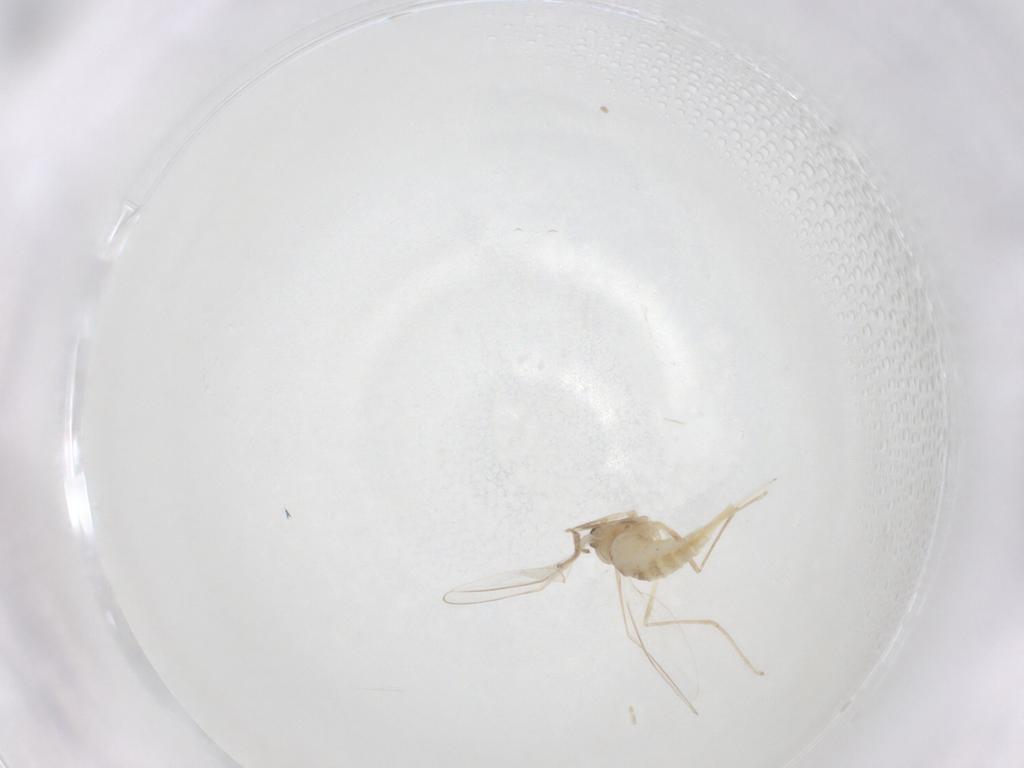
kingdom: Animalia
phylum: Arthropoda
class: Insecta
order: Diptera
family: Cecidomyiidae
